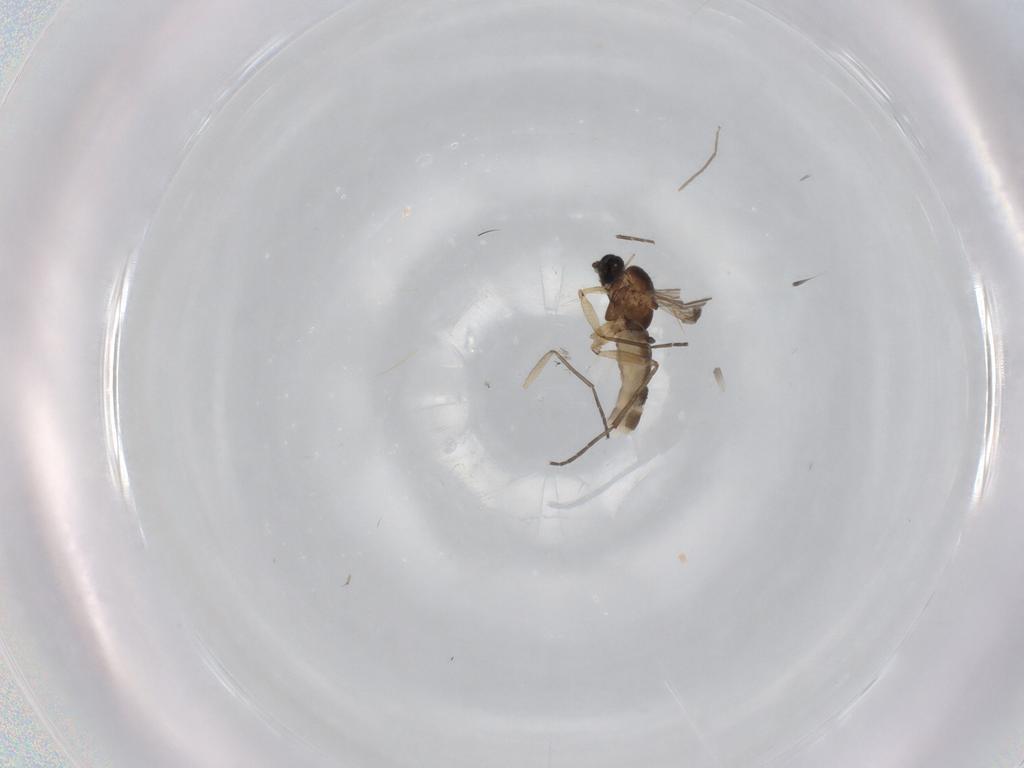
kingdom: Animalia
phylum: Arthropoda
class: Insecta
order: Diptera
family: Sciaridae
